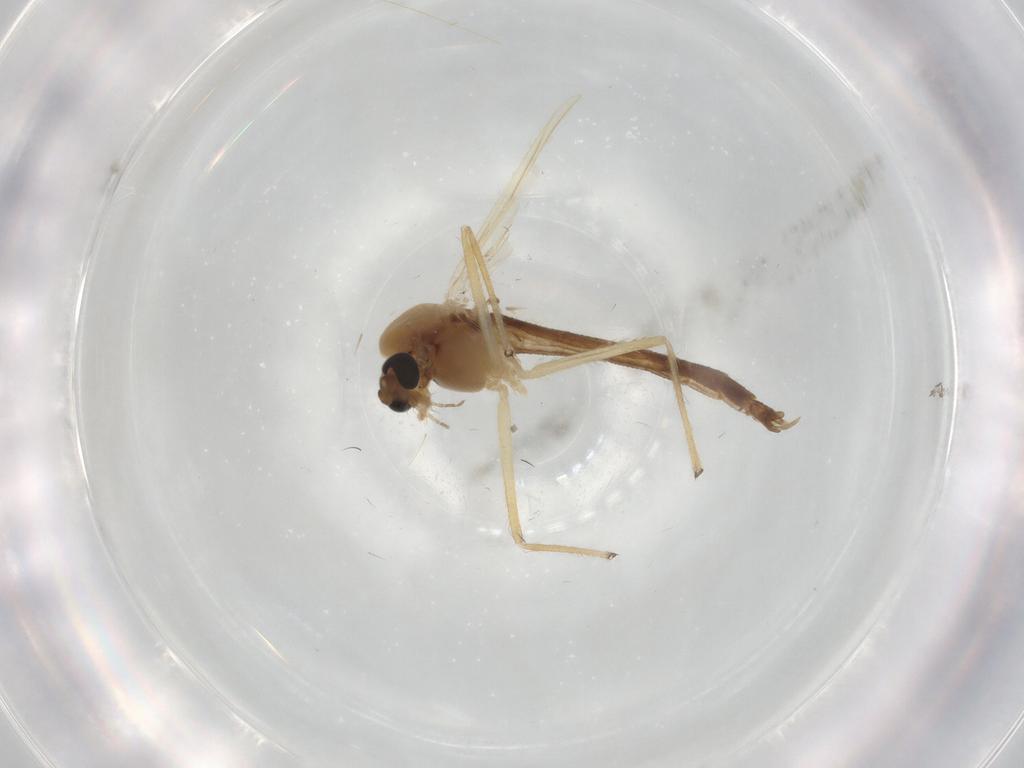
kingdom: Animalia
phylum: Arthropoda
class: Insecta
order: Diptera
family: Chironomidae
